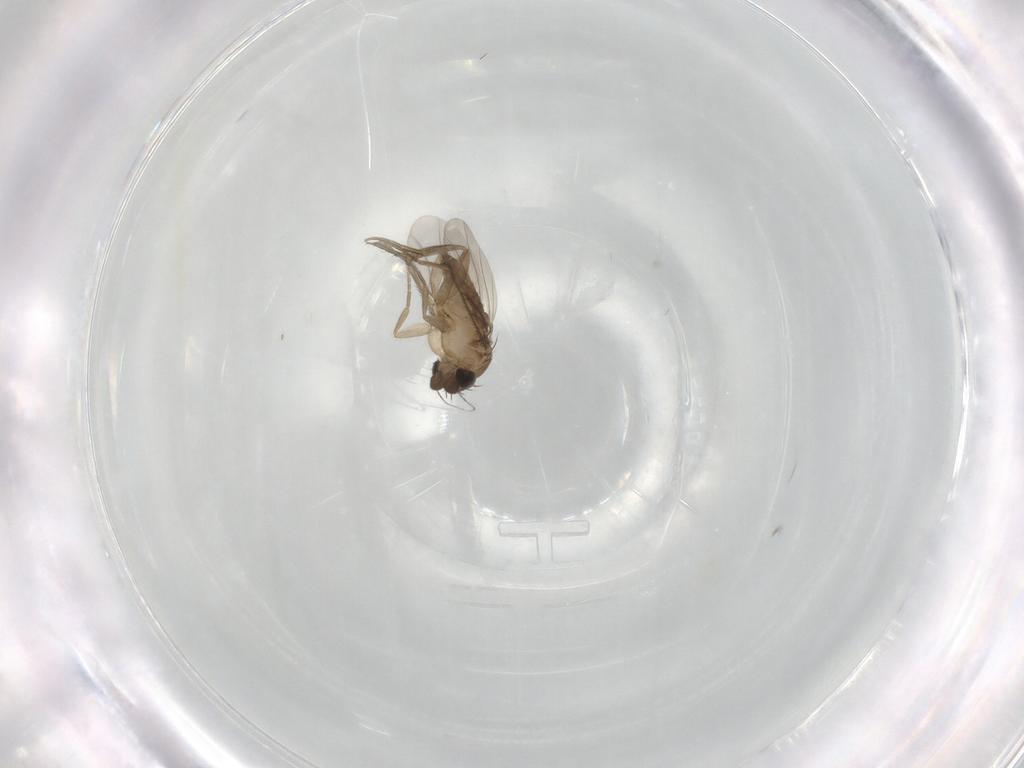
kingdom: Animalia
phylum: Arthropoda
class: Insecta
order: Diptera
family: Phoridae
